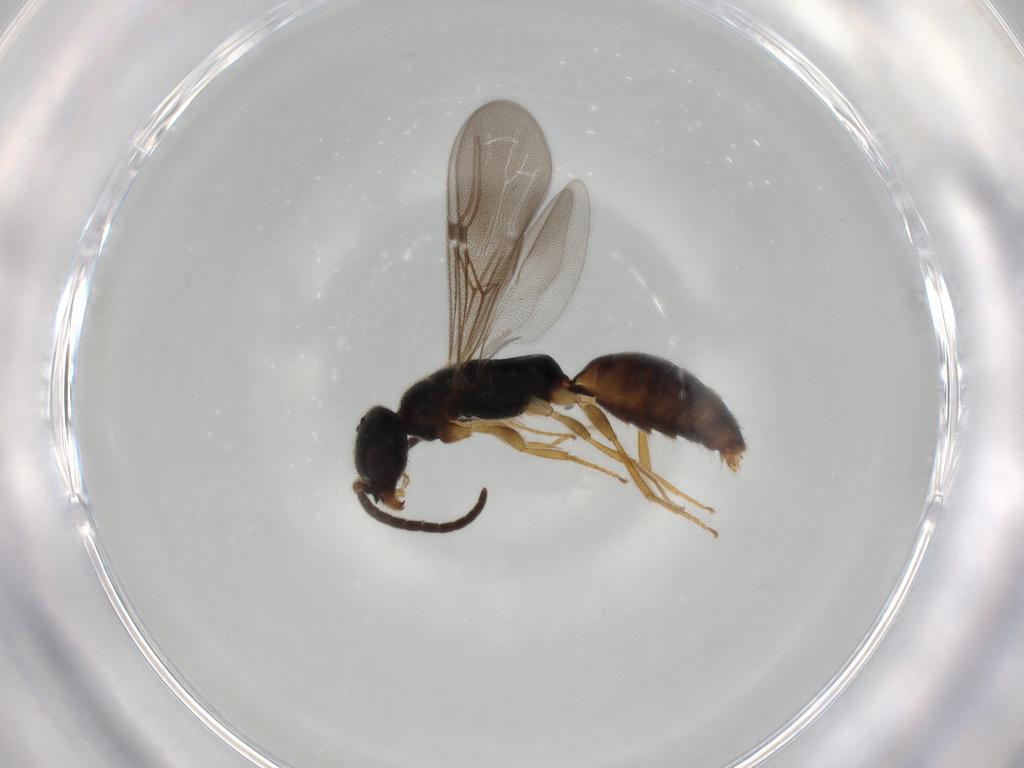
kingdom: Animalia
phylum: Arthropoda
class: Insecta
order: Hymenoptera
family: Bethylidae
